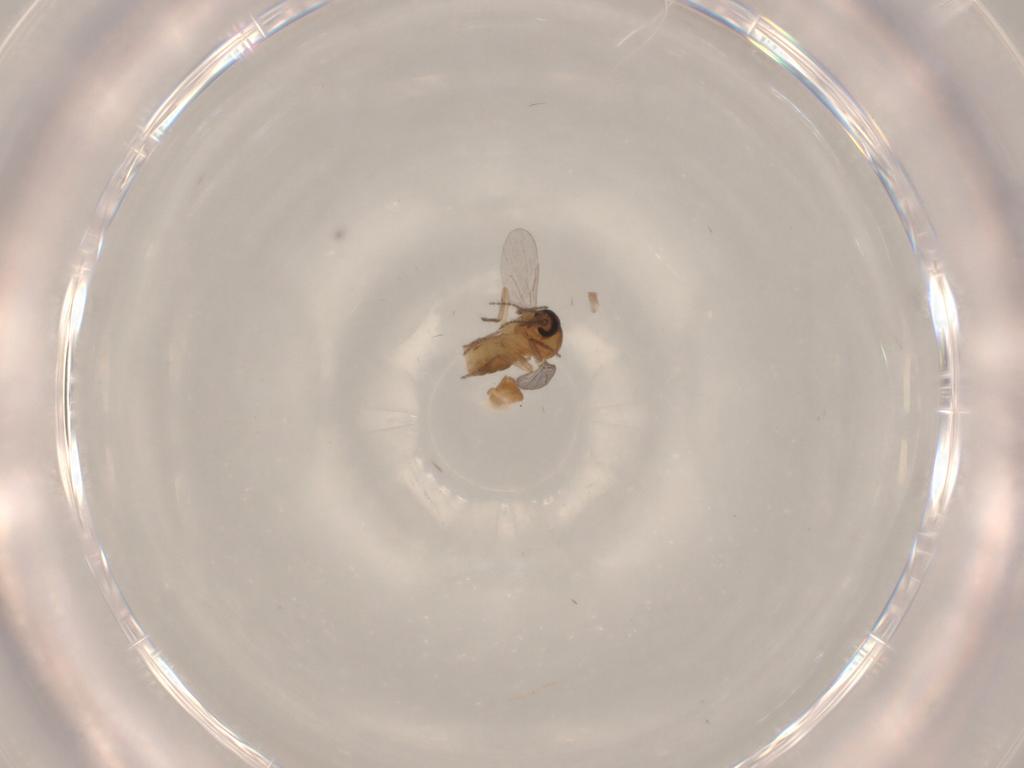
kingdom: Animalia
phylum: Arthropoda
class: Insecta
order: Diptera
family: Ceratopogonidae
